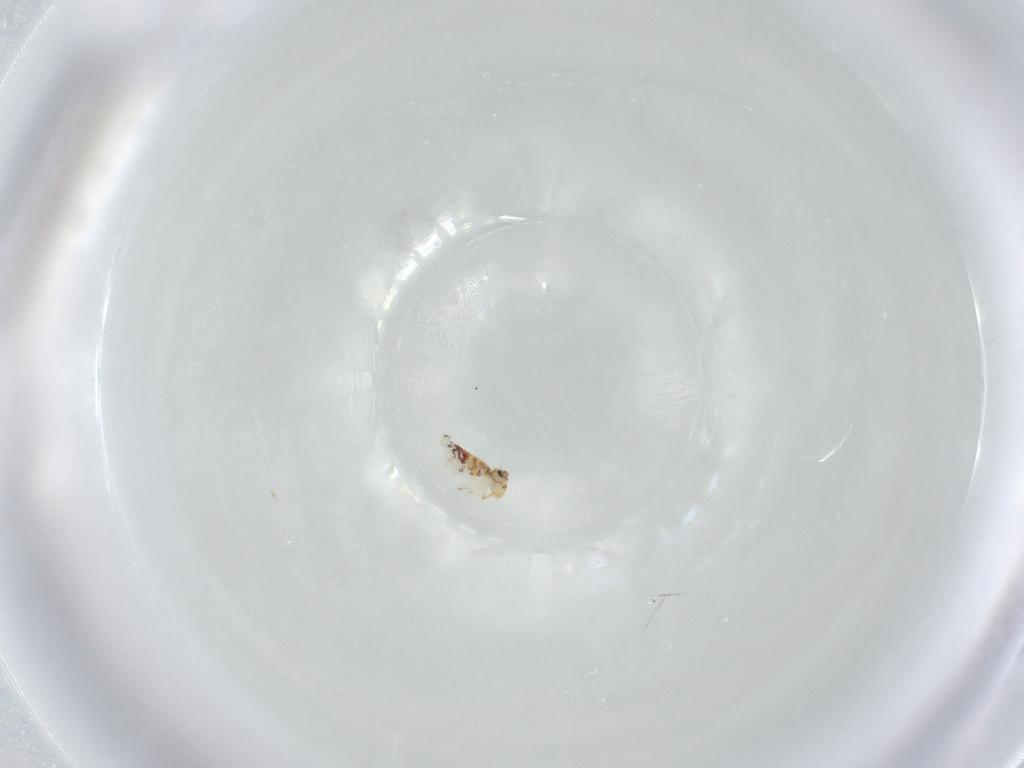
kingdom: Animalia
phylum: Arthropoda
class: Collembola
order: Symphypleona
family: Bourletiellidae
